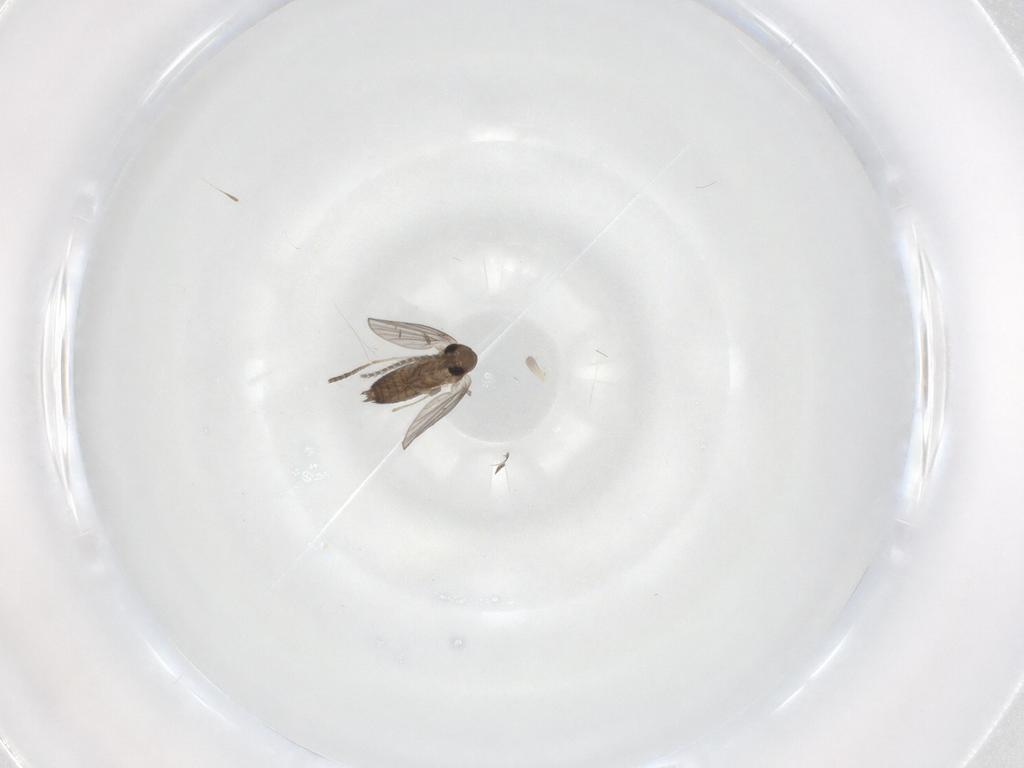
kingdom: Animalia
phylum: Arthropoda
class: Insecta
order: Diptera
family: Cecidomyiidae
